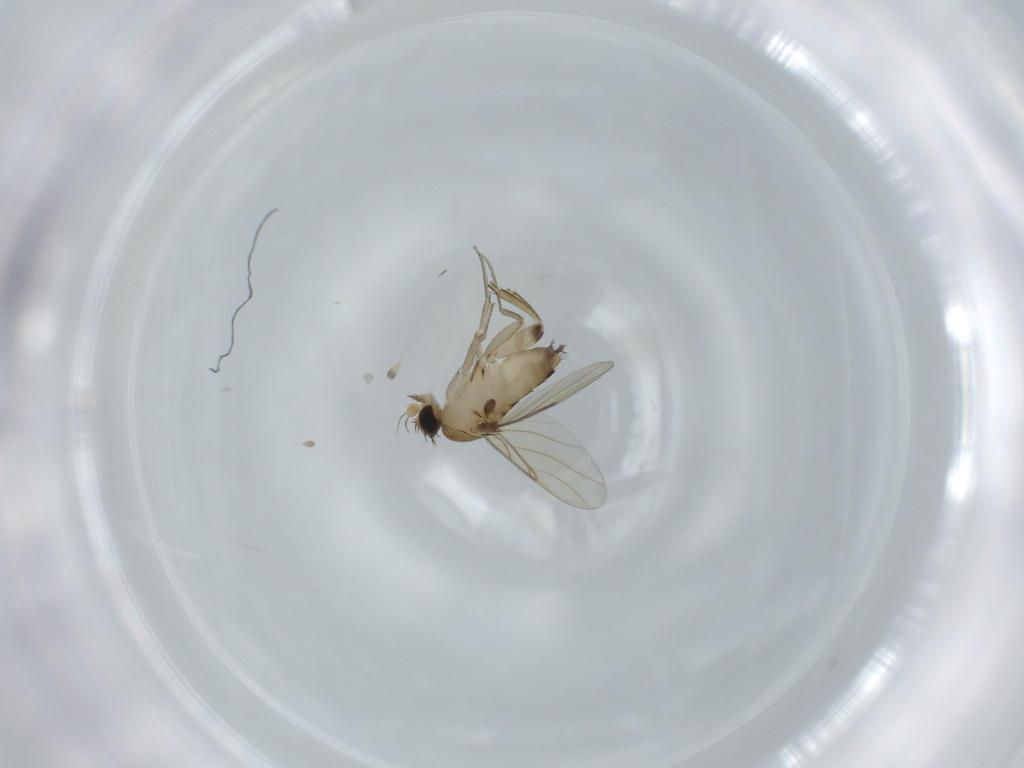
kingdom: Animalia
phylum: Arthropoda
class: Insecta
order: Diptera
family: Phoridae
